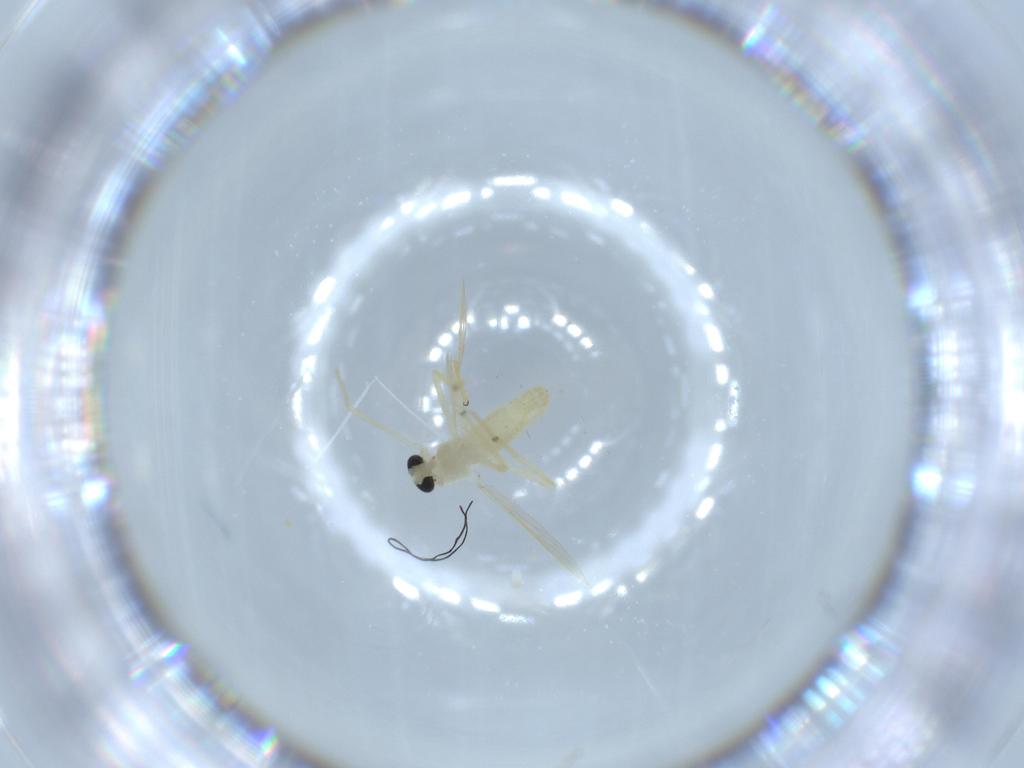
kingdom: Animalia
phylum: Arthropoda
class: Insecta
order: Diptera
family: Chironomidae
